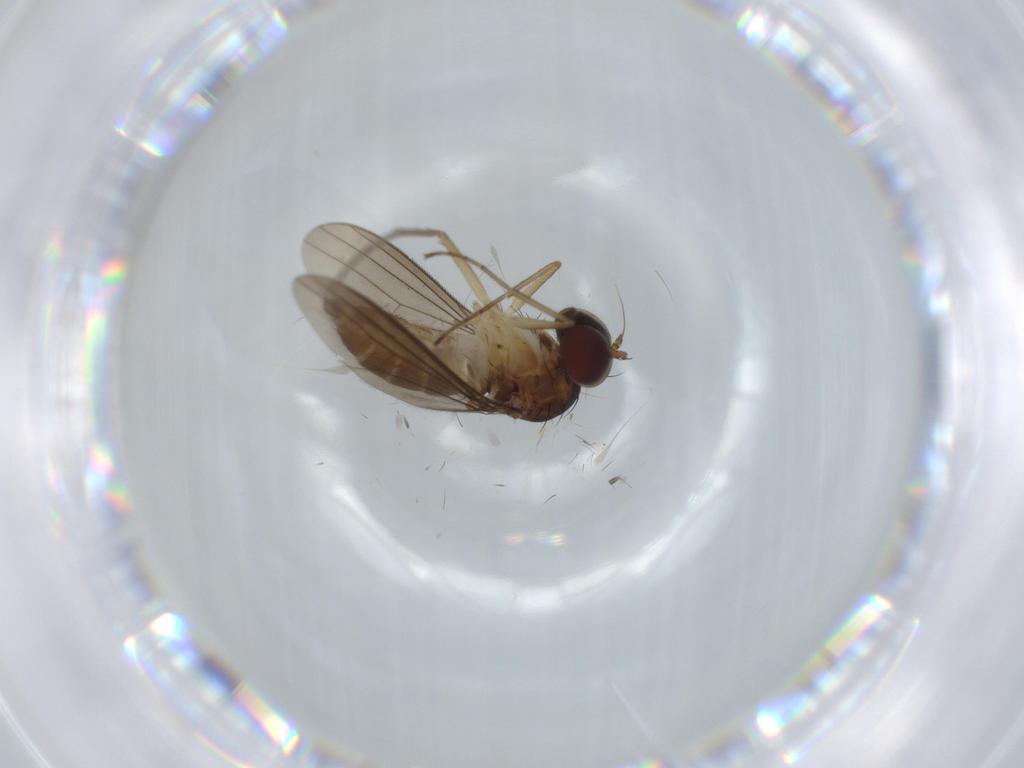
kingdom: Animalia
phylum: Arthropoda
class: Insecta
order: Diptera
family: Dolichopodidae
